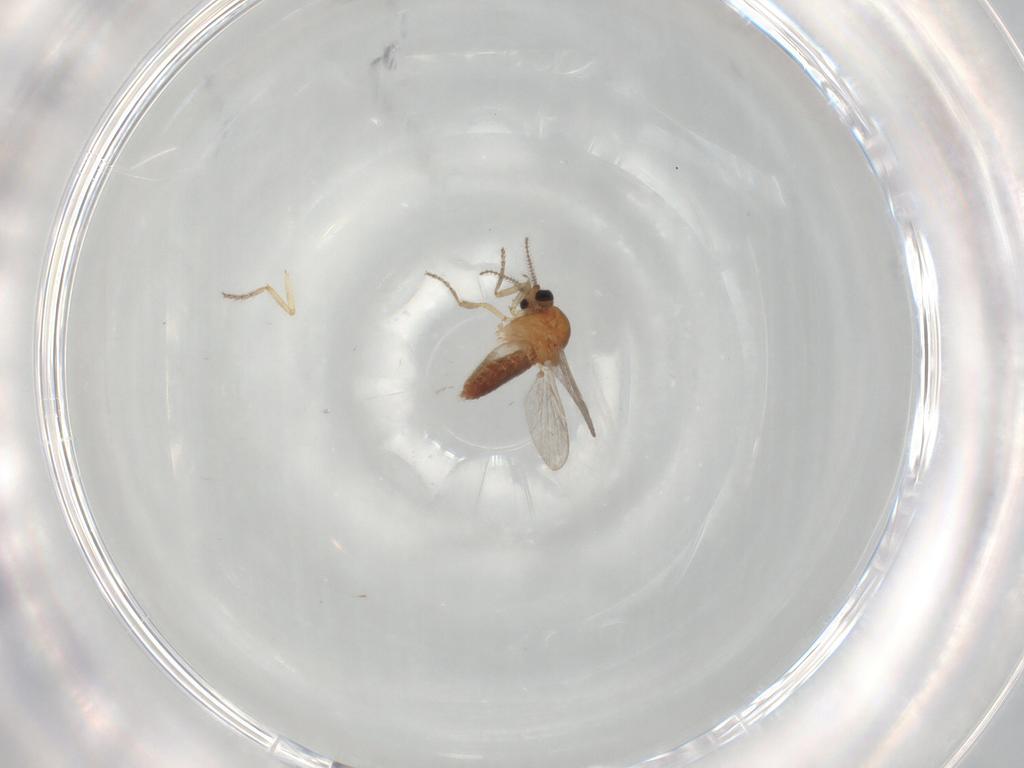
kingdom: Animalia
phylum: Arthropoda
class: Insecta
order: Diptera
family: Ceratopogonidae
